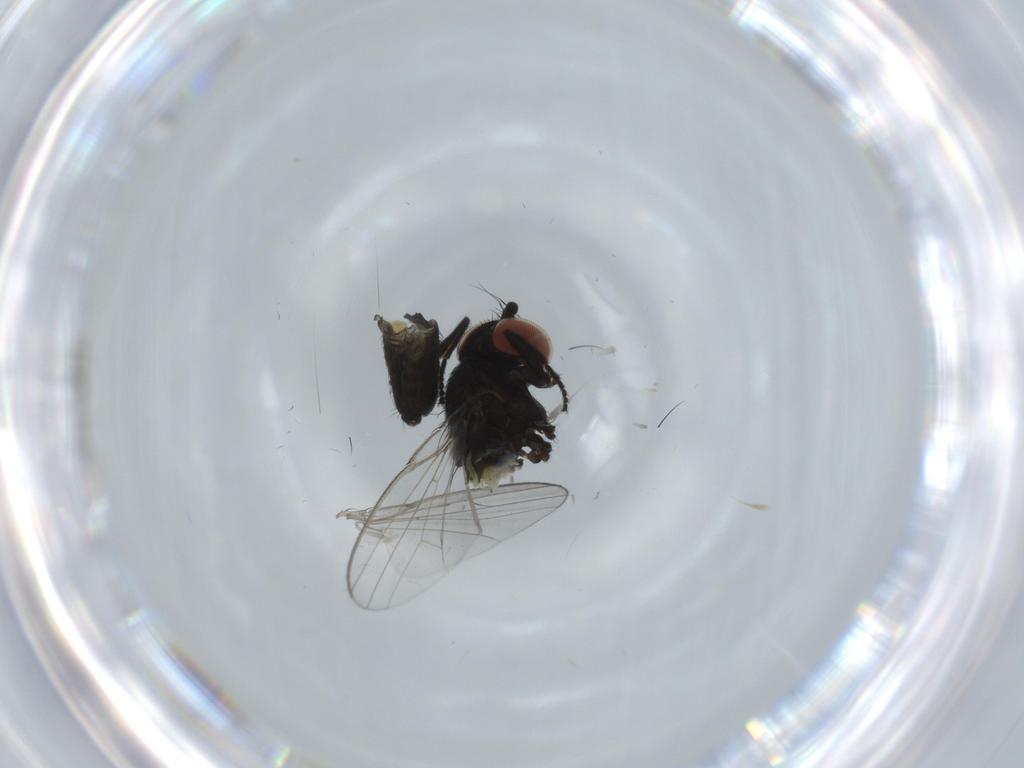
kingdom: Animalia
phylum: Arthropoda
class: Insecta
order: Diptera
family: Milichiidae
